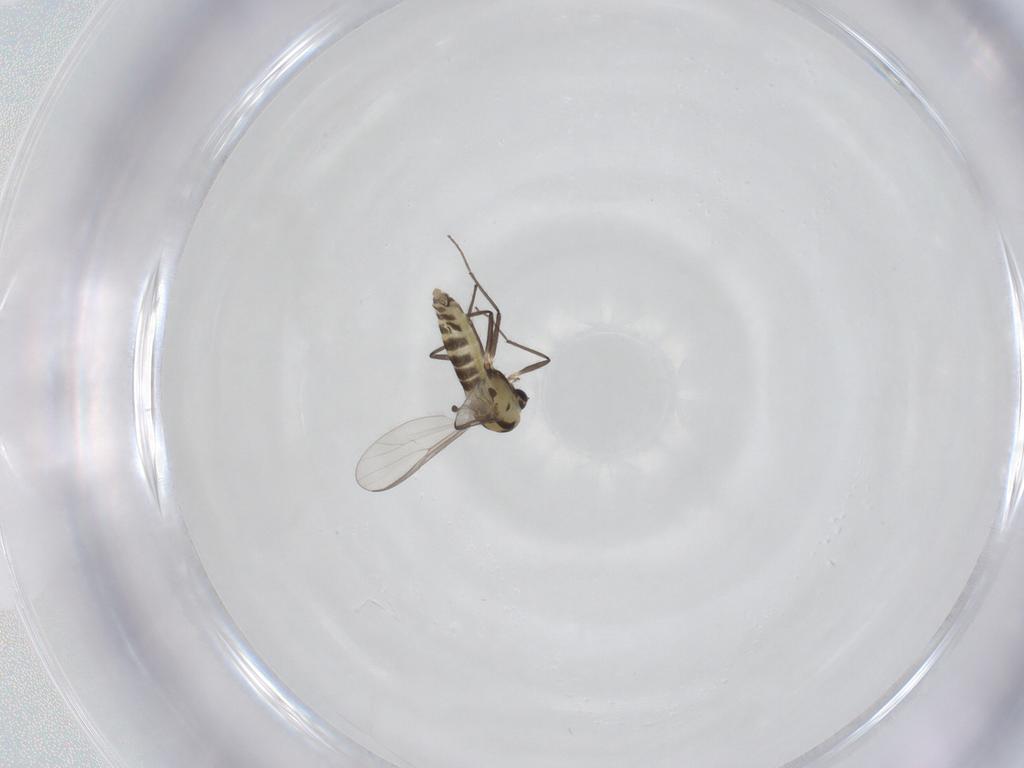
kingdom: Animalia
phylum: Arthropoda
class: Insecta
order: Diptera
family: Chironomidae
